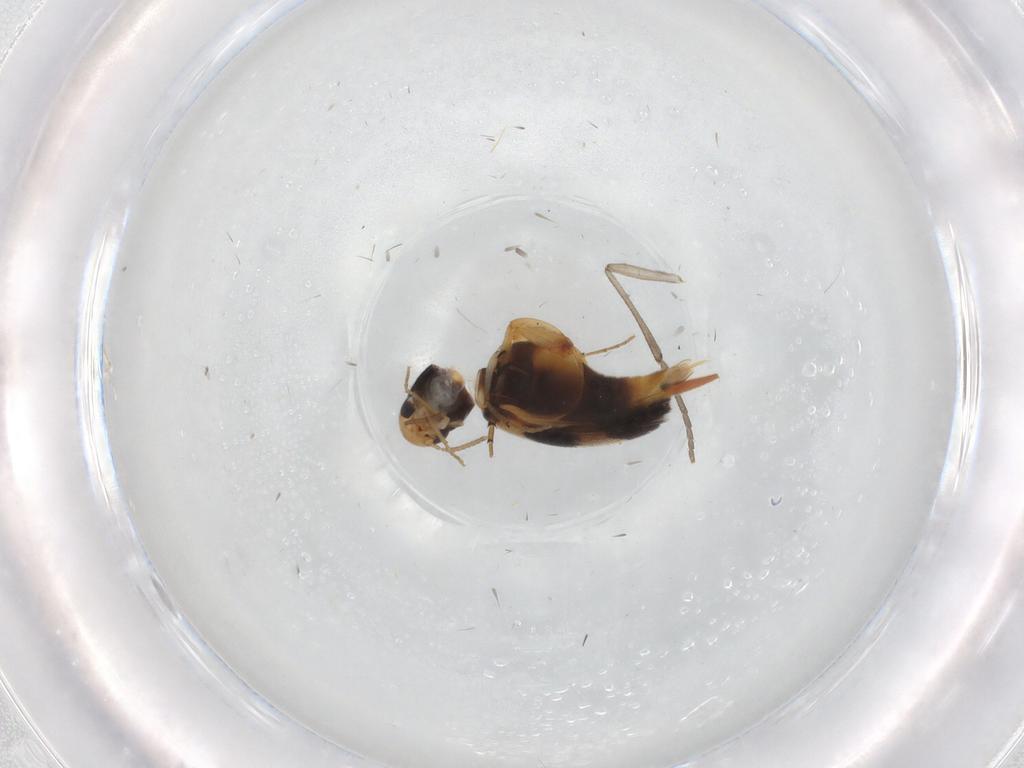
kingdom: Animalia
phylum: Arthropoda
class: Insecta
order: Coleoptera
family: Mordellidae
